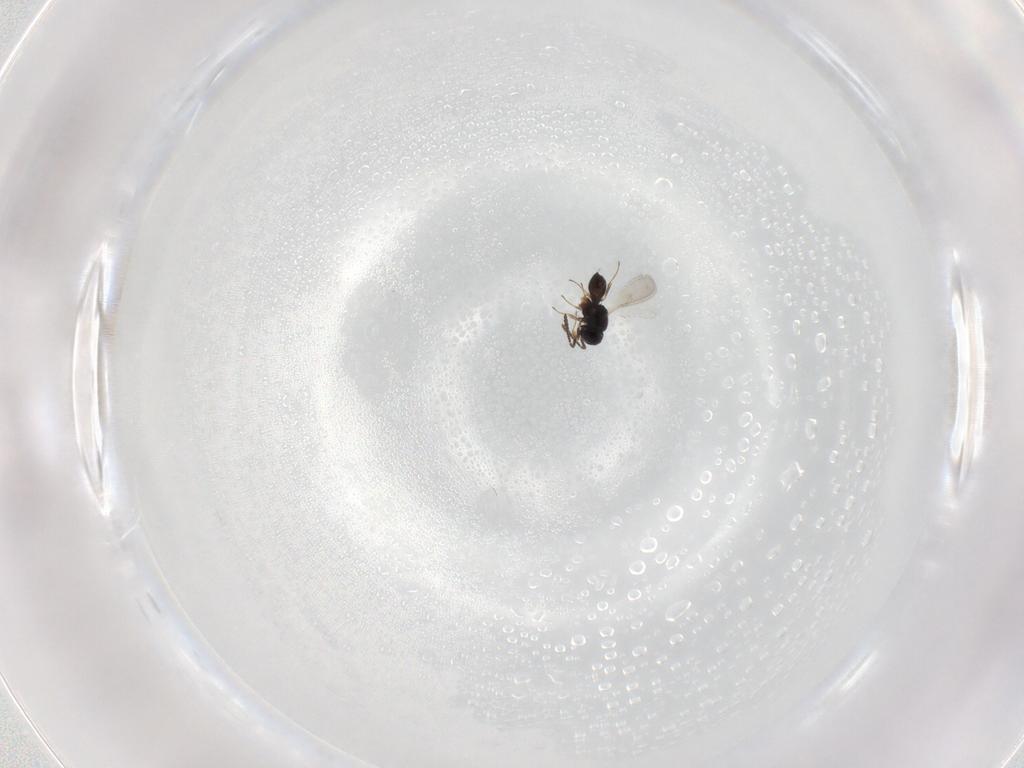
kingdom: Animalia
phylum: Arthropoda
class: Insecta
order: Hymenoptera
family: Scelionidae
